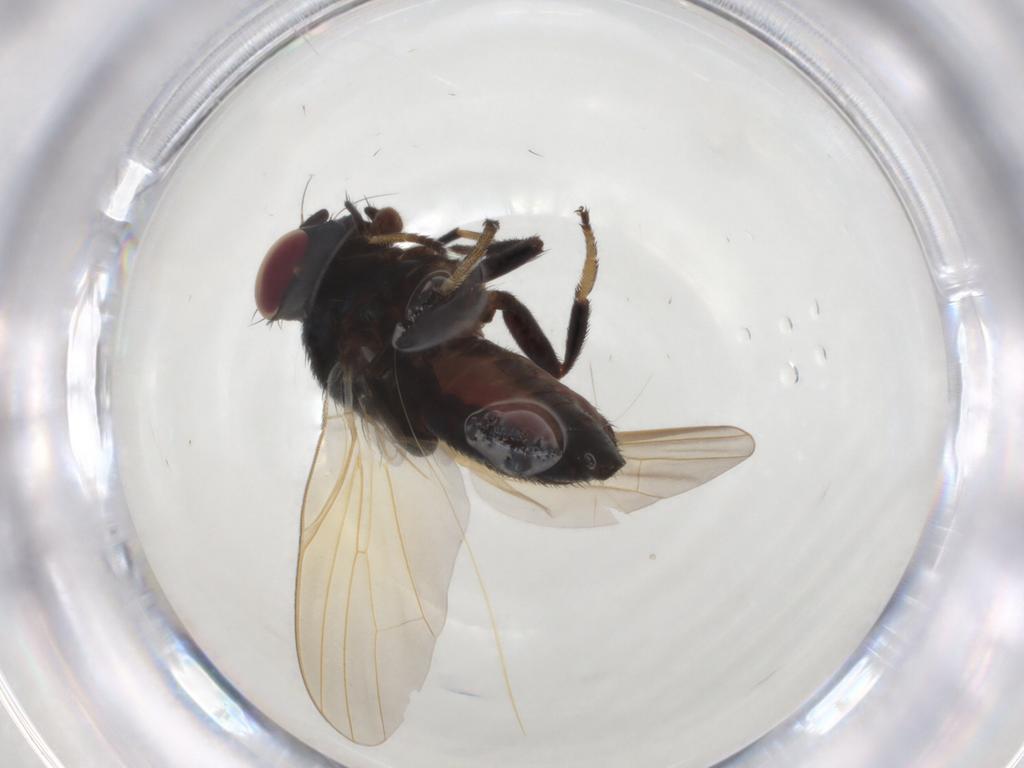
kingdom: Animalia
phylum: Arthropoda
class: Insecta
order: Diptera
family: Lonchaeidae
